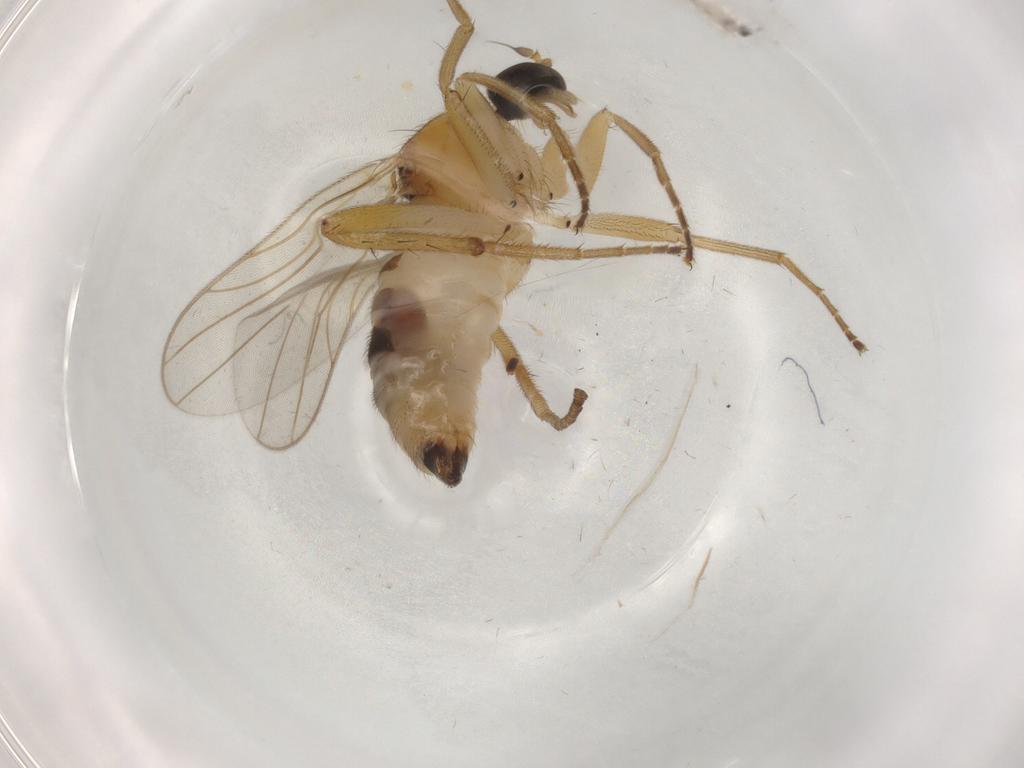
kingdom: Animalia
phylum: Arthropoda
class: Insecta
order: Diptera
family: Hybotidae
